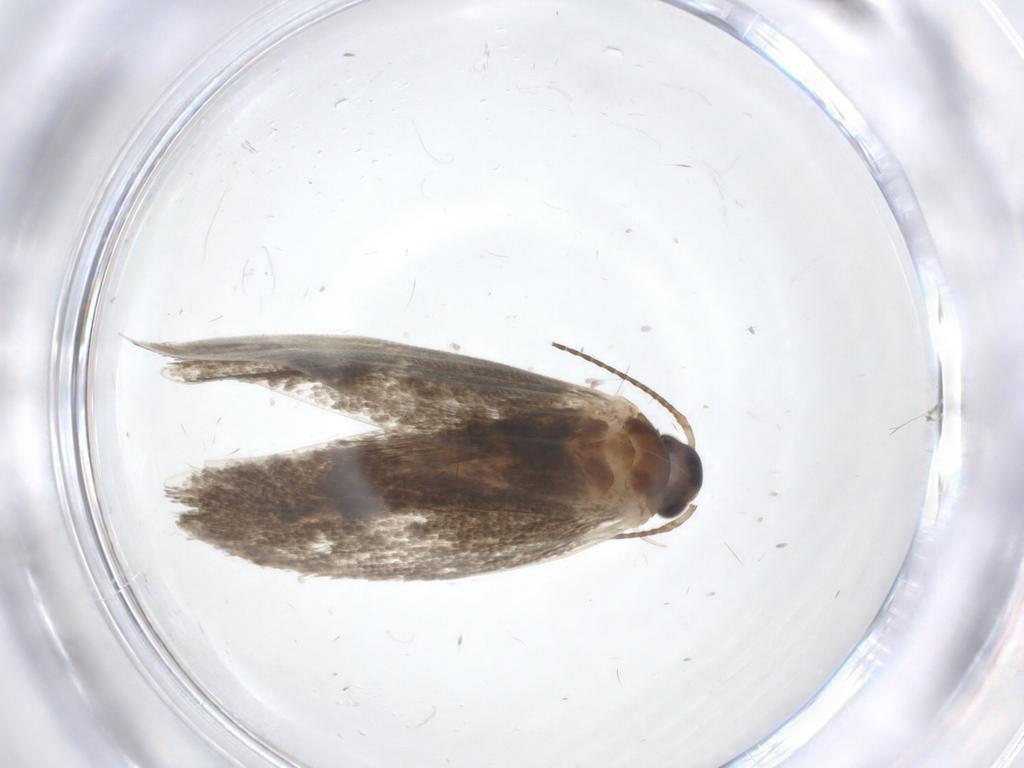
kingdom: Animalia
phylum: Arthropoda
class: Insecta
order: Lepidoptera
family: Oecophoridae
